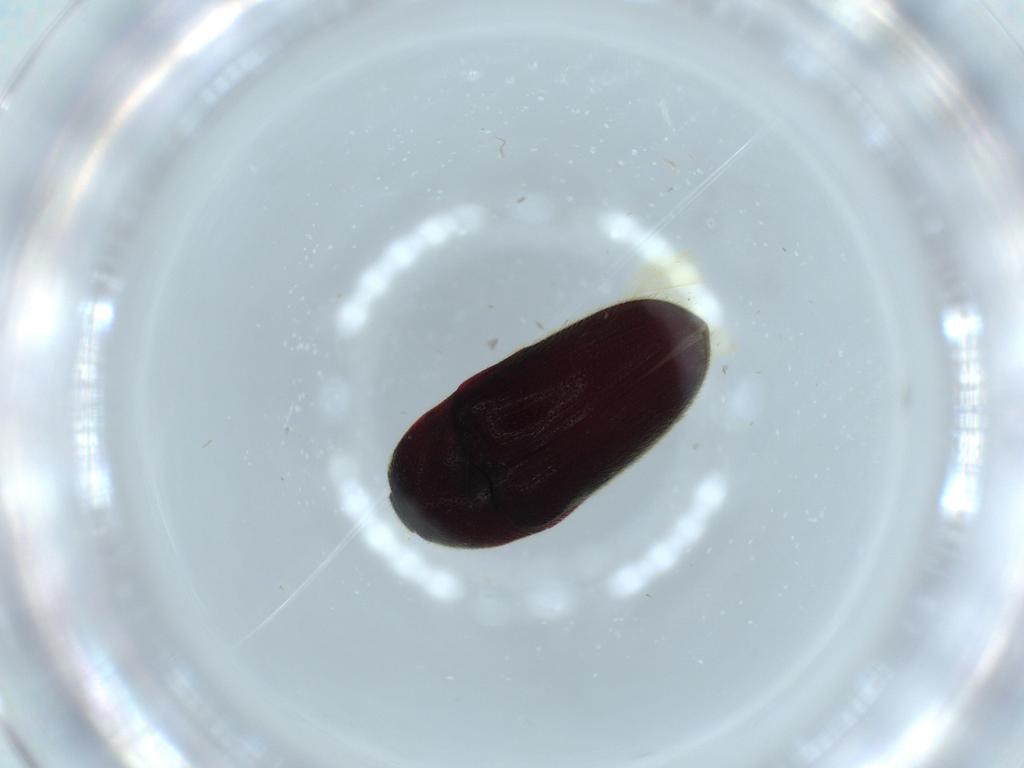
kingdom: Animalia
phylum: Arthropoda
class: Insecta
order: Coleoptera
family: Throscidae
